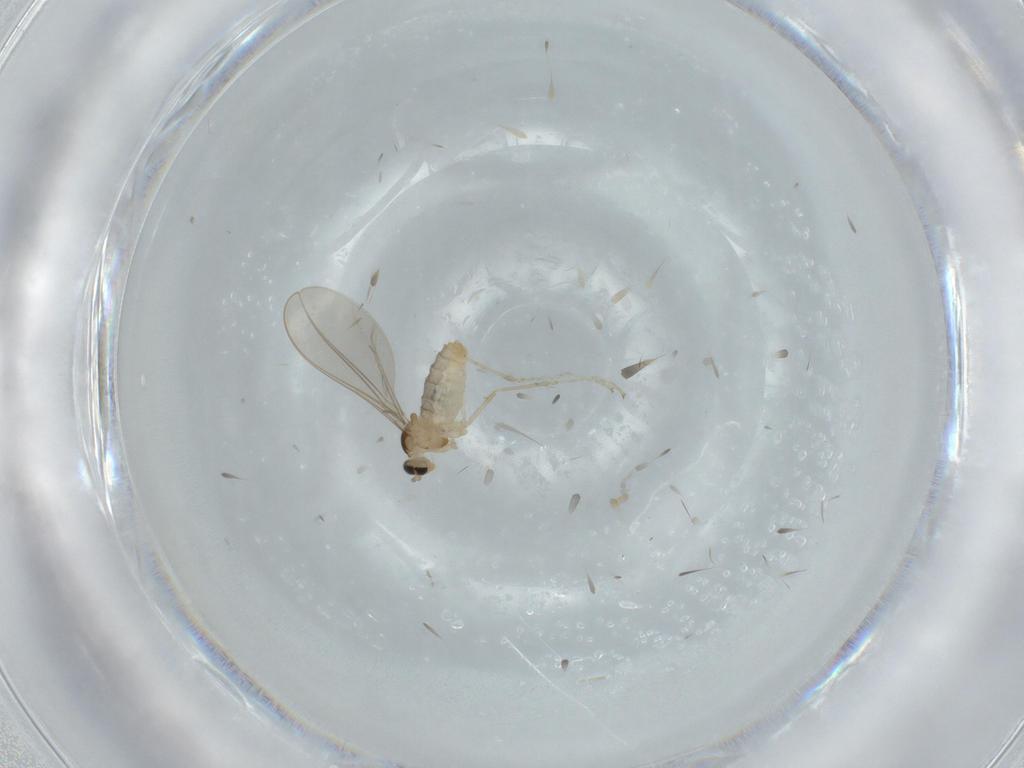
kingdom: Animalia
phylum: Arthropoda
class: Insecta
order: Diptera
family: Cecidomyiidae
